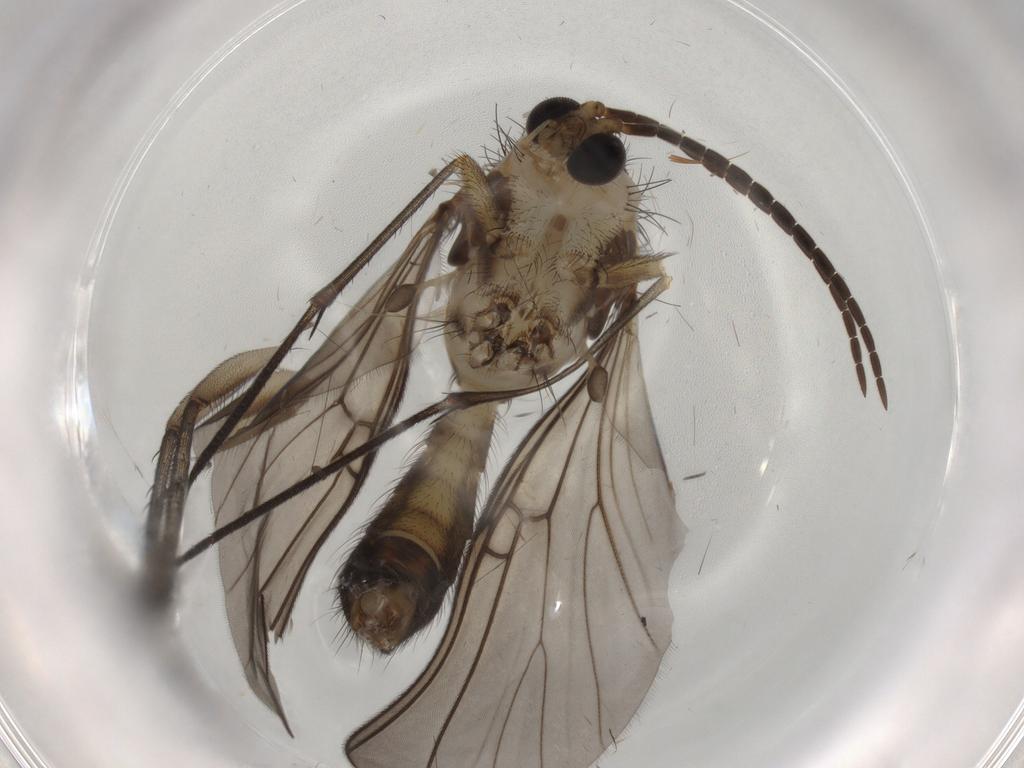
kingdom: Animalia
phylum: Arthropoda
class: Insecta
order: Diptera
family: Mycetophilidae
